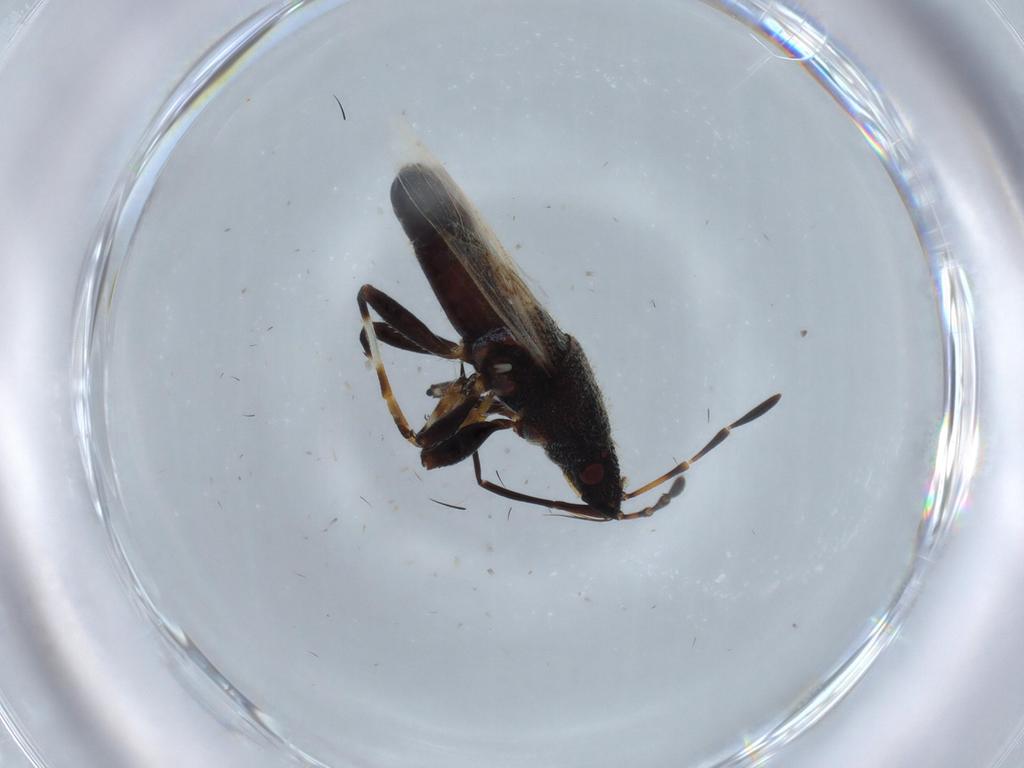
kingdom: Animalia
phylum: Arthropoda
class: Insecta
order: Hemiptera
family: Oxycarenidae
